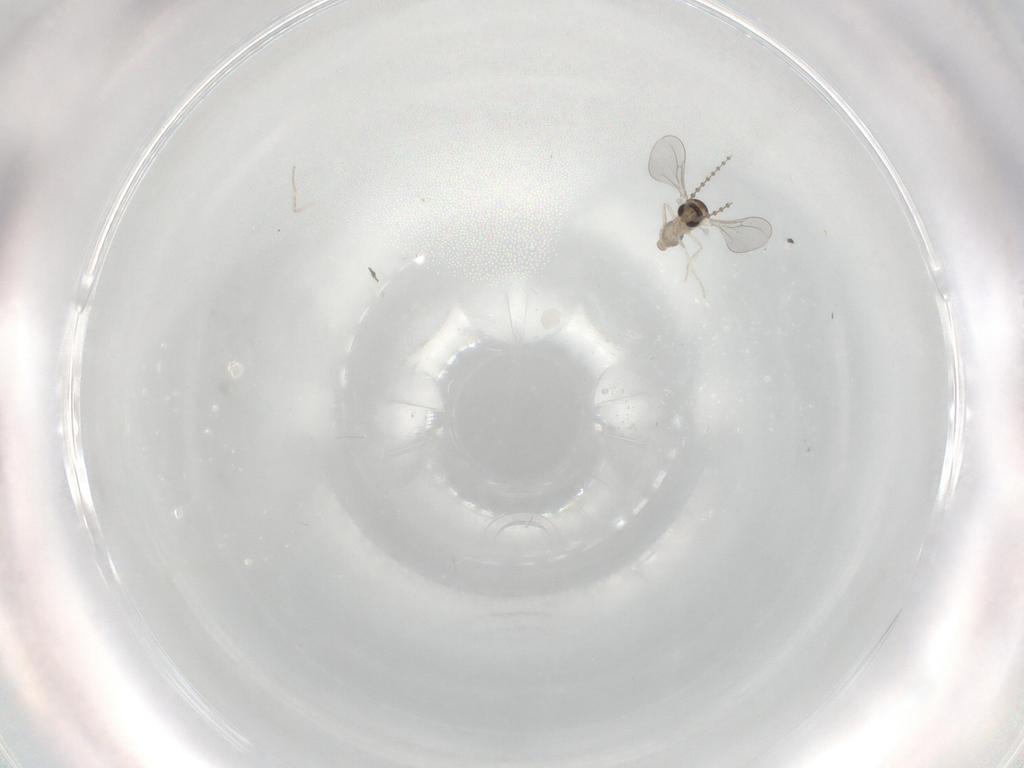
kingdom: Animalia
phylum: Arthropoda
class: Insecta
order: Diptera
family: Cecidomyiidae
